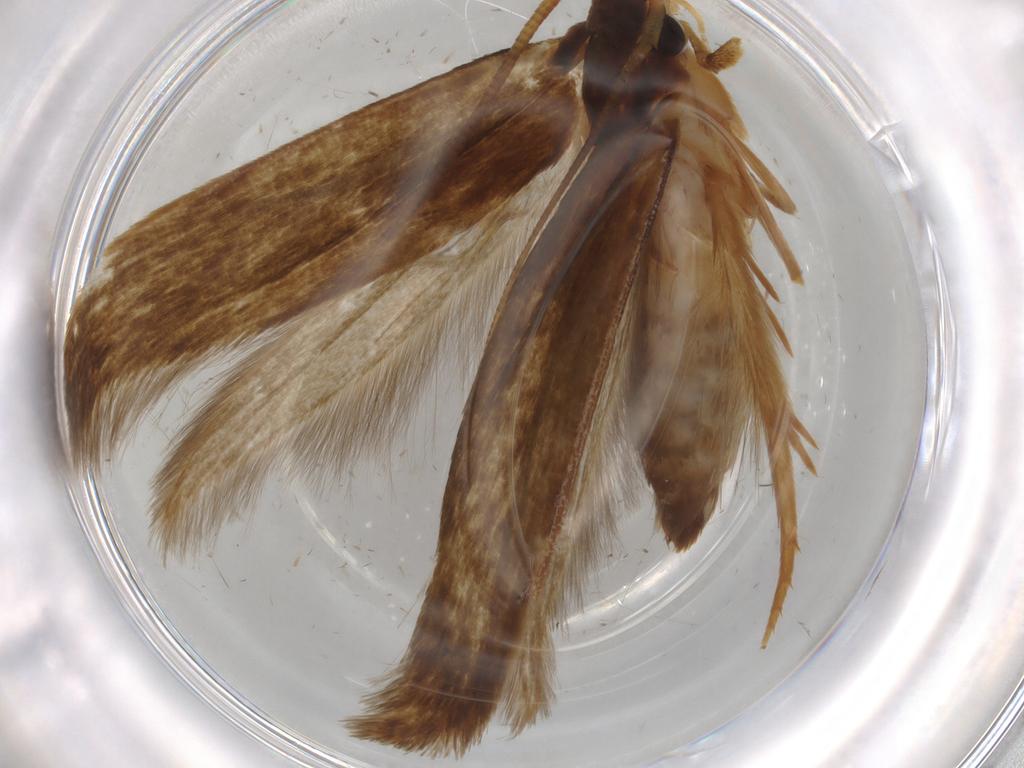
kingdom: Animalia
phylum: Arthropoda
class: Insecta
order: Lepidoptera
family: Tineidae
